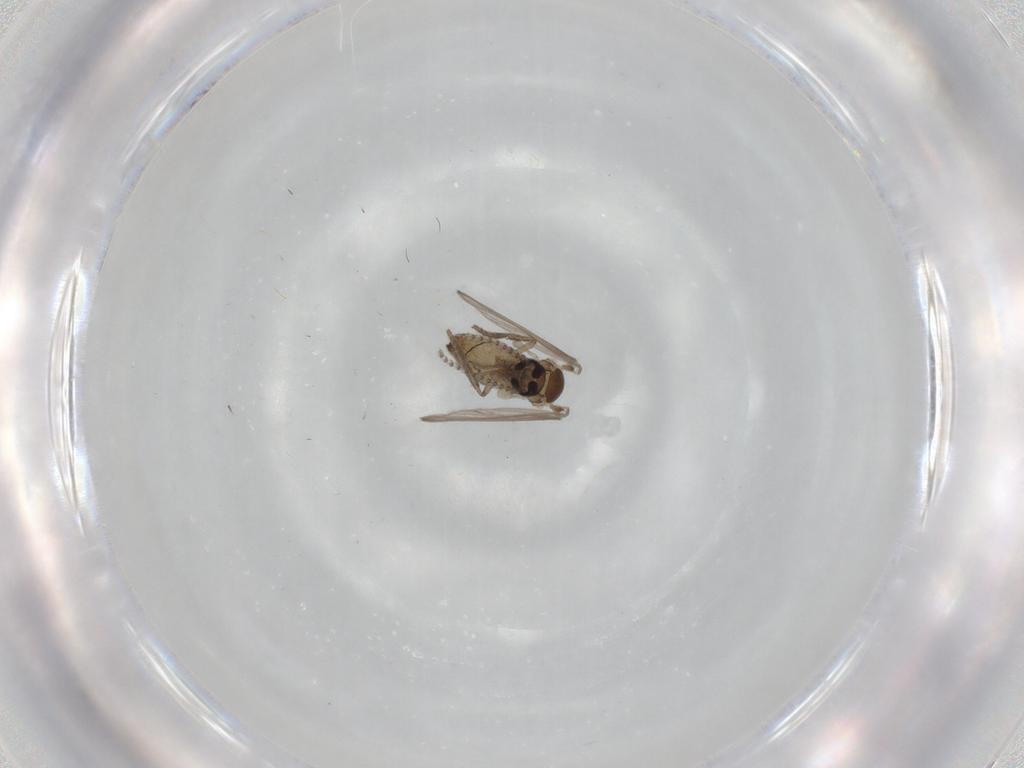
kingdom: Animalia
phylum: Arthropoda
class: Insecta
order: Diptera
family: Psychodidae
